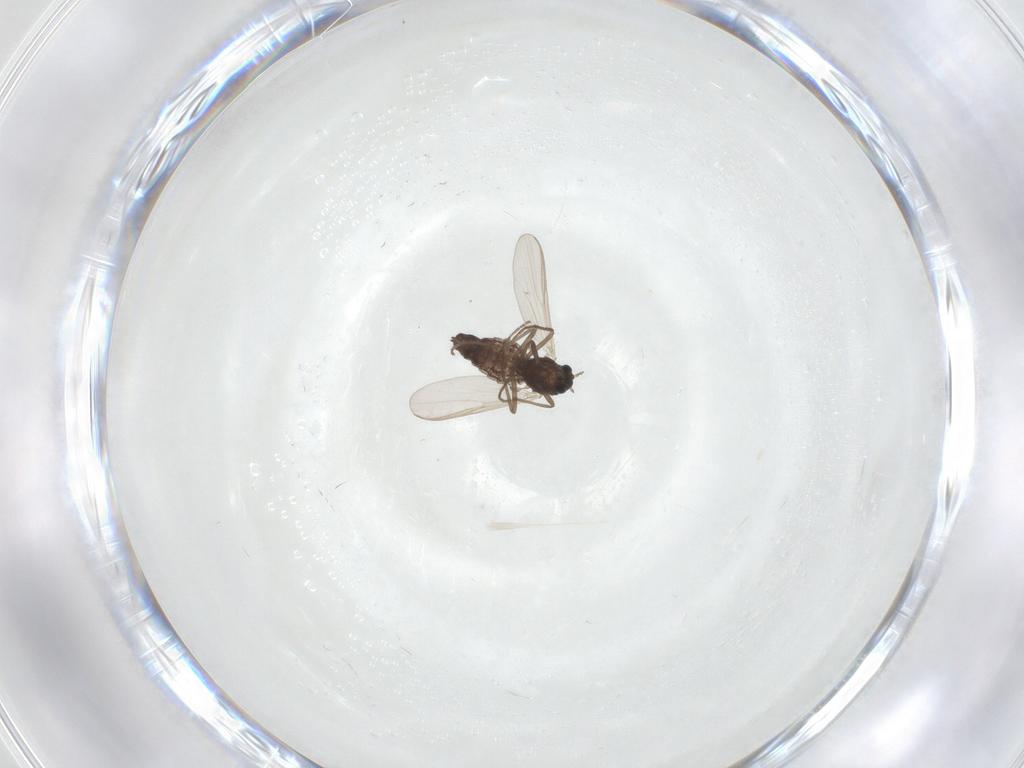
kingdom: Animalia
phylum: Arthropoda
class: Insecta
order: Diptera
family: Chironomidae
